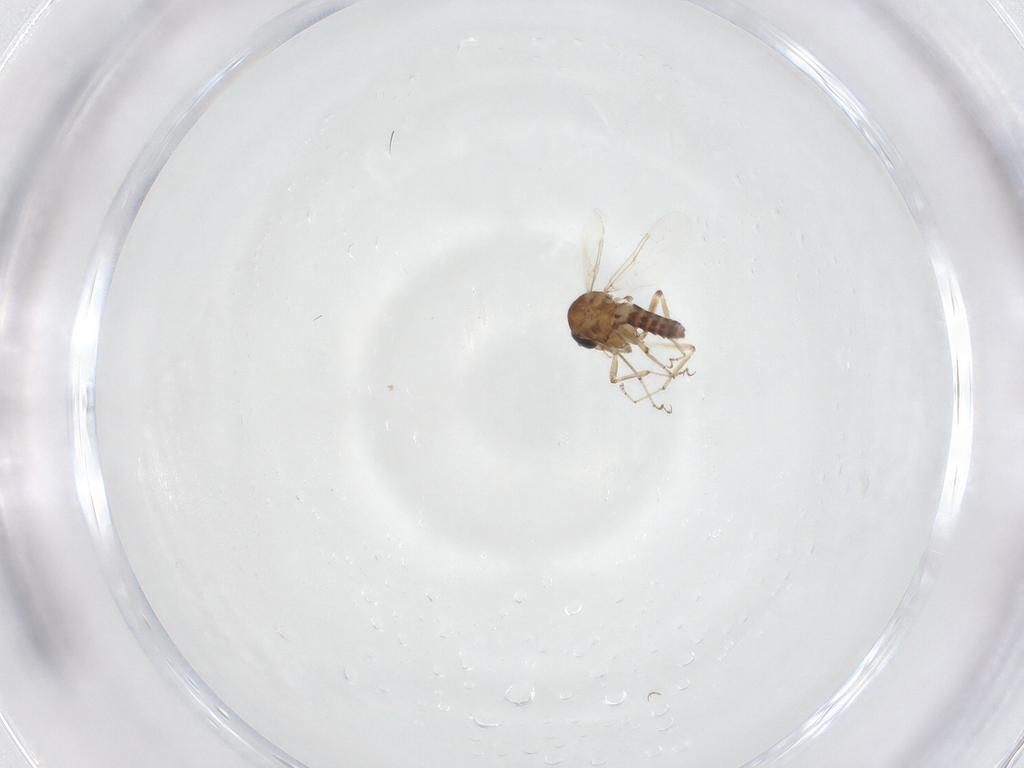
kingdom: Animalia
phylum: Arthropoda
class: Insecta
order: Diptera
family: Ceratopogonidae
